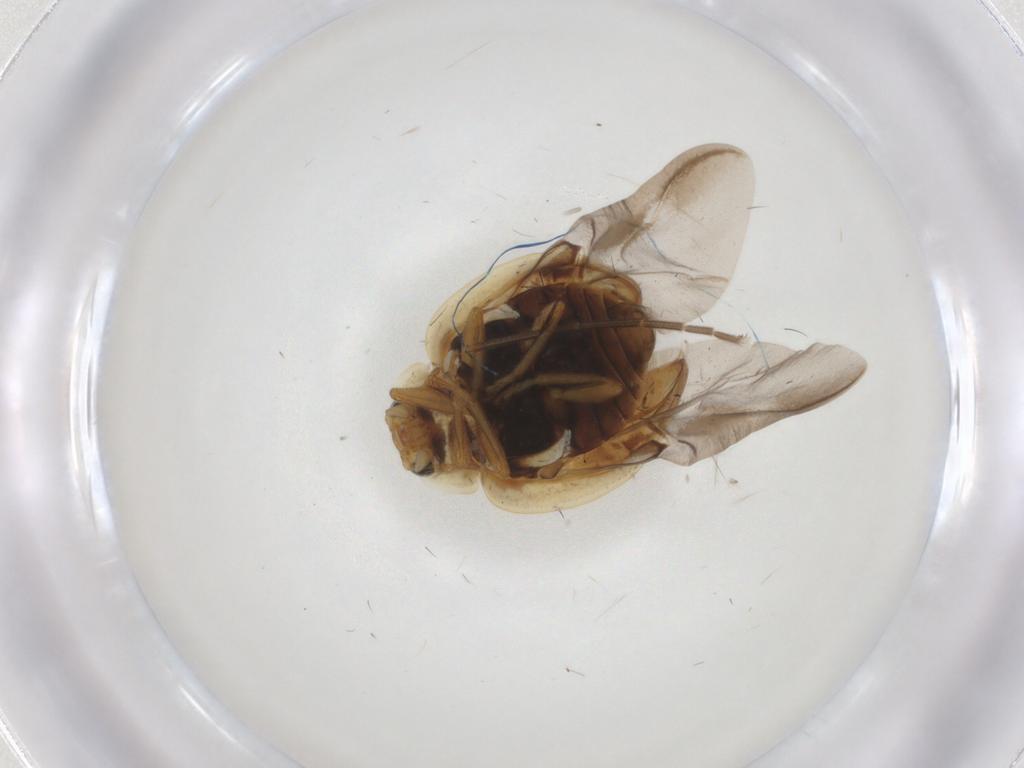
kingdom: Animalia
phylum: Arthropoda
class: Insecta
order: Coleoptera
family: Coccinellidae
